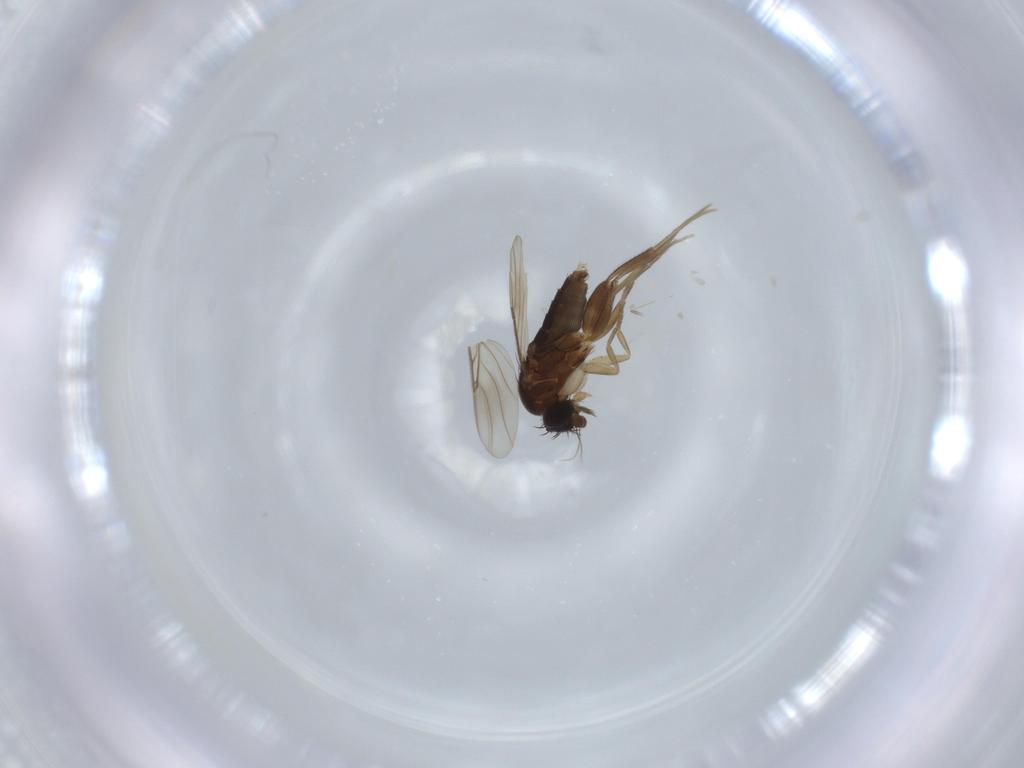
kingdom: Animalia
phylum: Arthropoda
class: Insecta
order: Diptera
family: Phoridae
